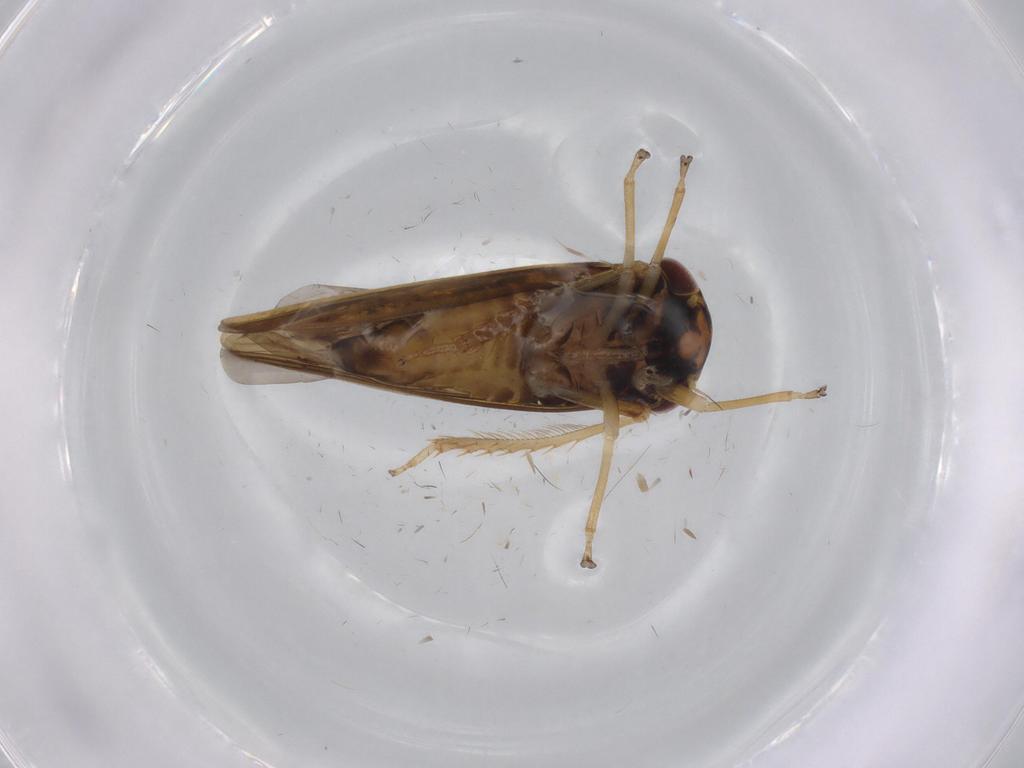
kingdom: Animalia
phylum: Arthropoda
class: Insecta
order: Hemiptera
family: Cicadellidae
